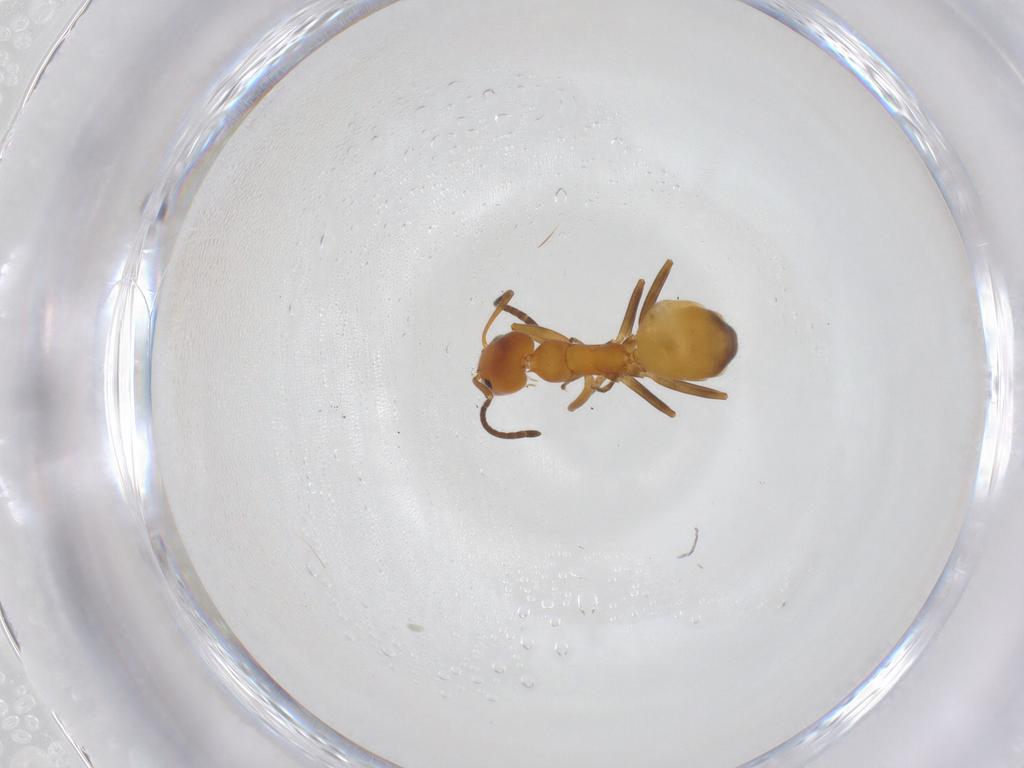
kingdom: Animalia
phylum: Arthropoda
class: Insecta
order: Hymenoptera
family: Formicidae
